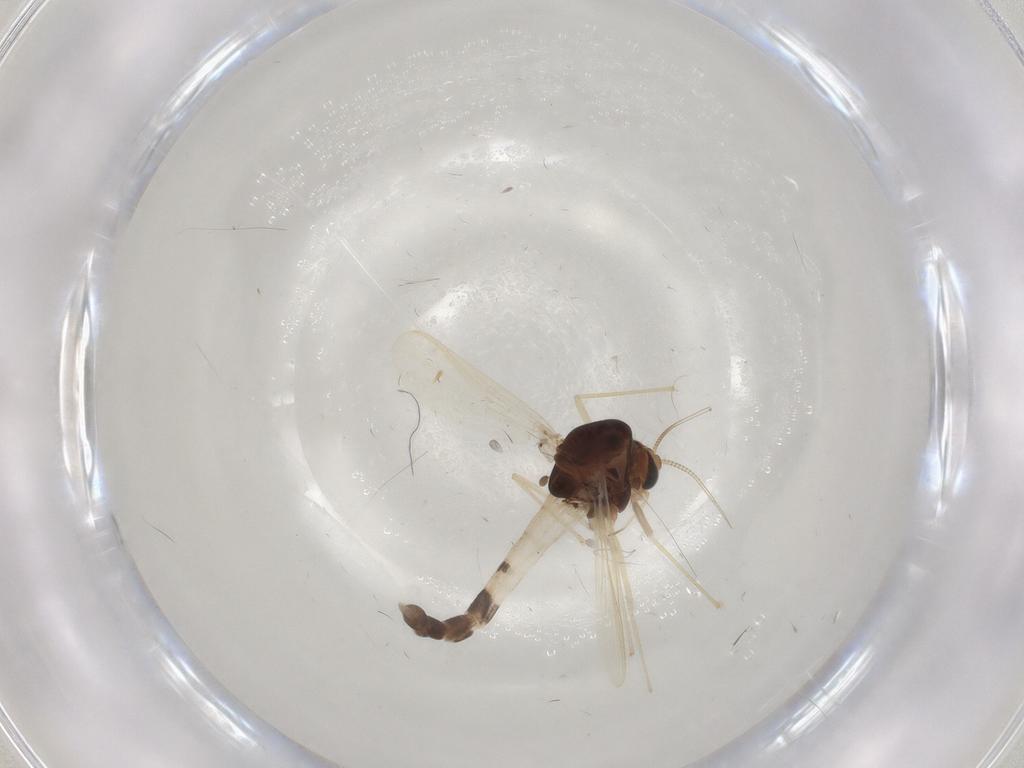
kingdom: Animalia
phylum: Arthropoda
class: Insecta
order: Diptera
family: Chironomidae
